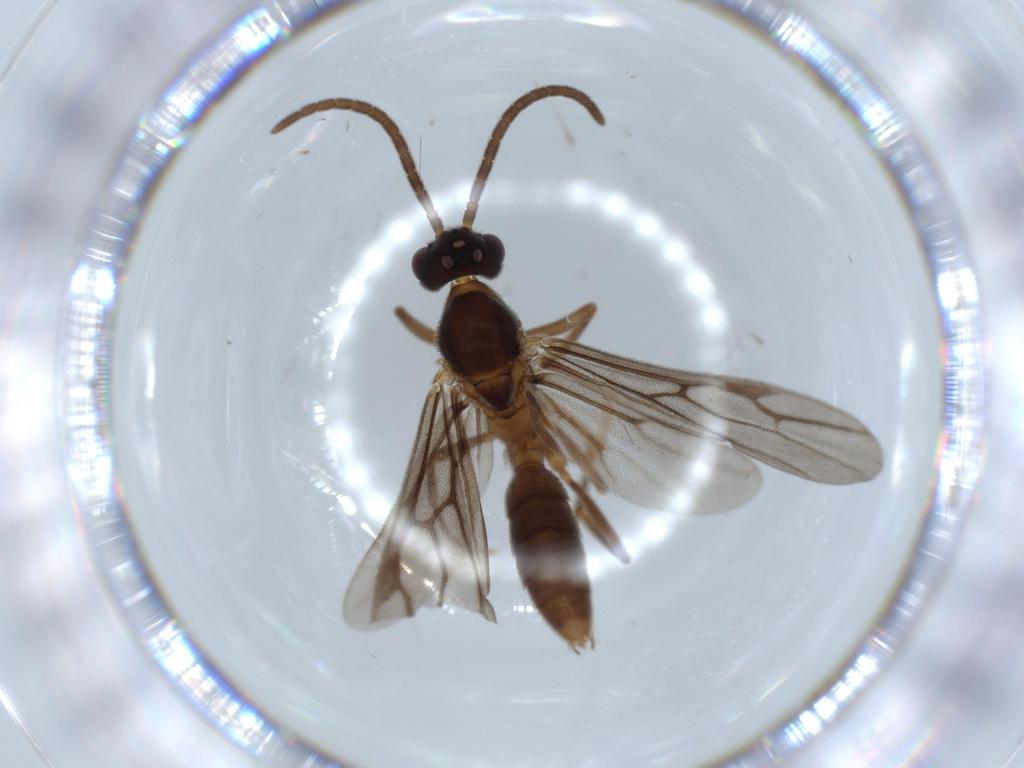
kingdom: Animalia
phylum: Arthropoda
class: Insecta
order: Hymenoptera
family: Formicidae
